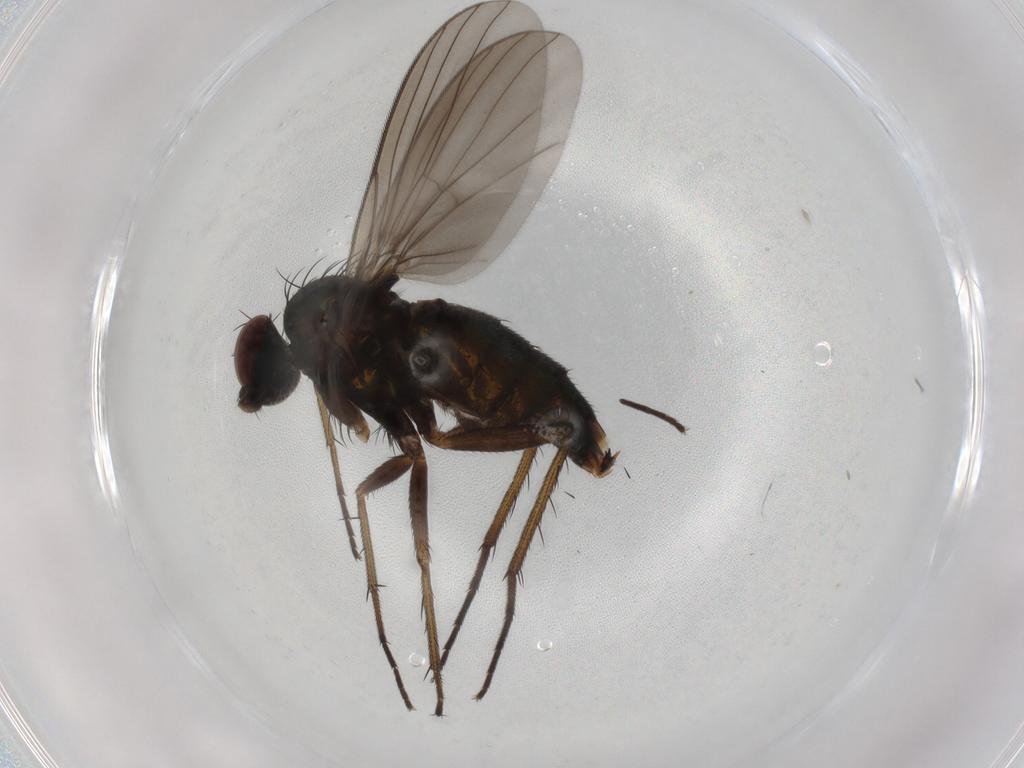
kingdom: Animalia
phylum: Arthropoda
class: Insecta
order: Diptera
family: Dolichopodidae
